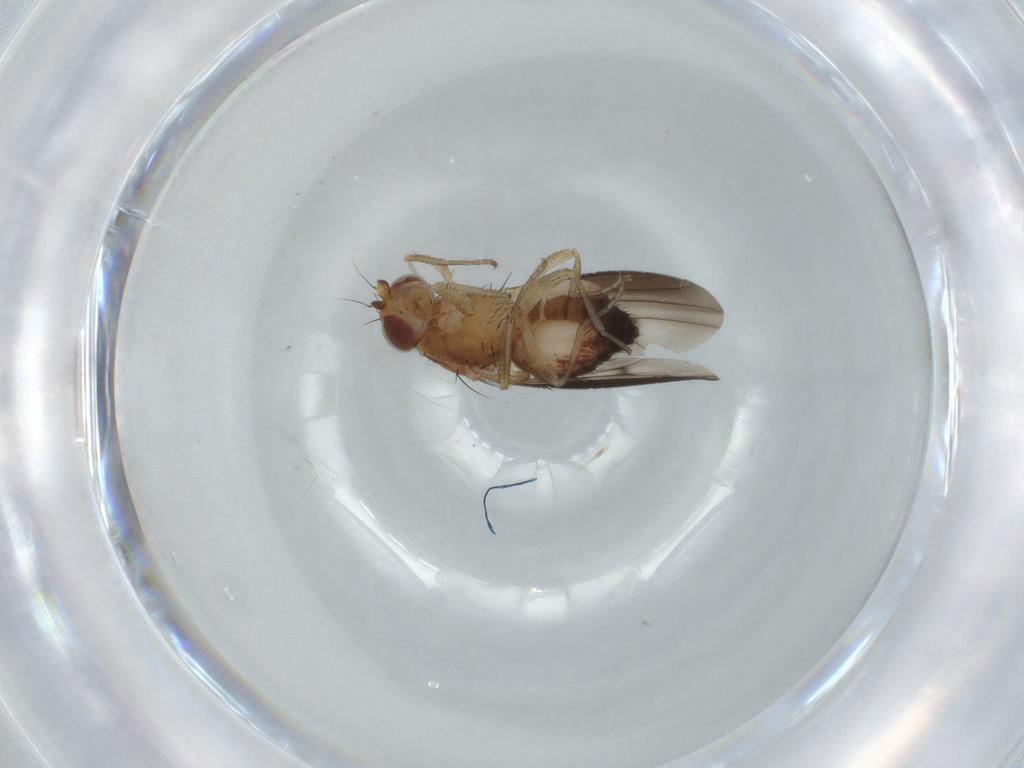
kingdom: Animalia
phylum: Arthropoda
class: Insecta
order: Diptera
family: Heleomyzidae
